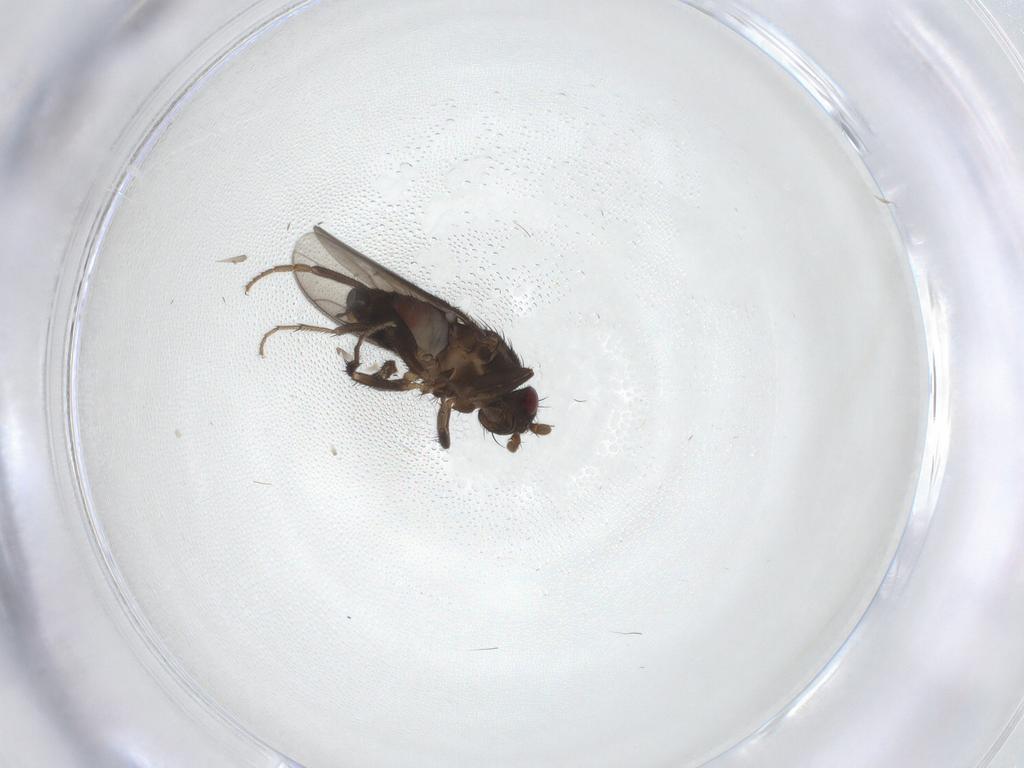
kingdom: Animalia
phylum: Arthropoda
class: Insecta
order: Diptera
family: Sphaeroceridae
